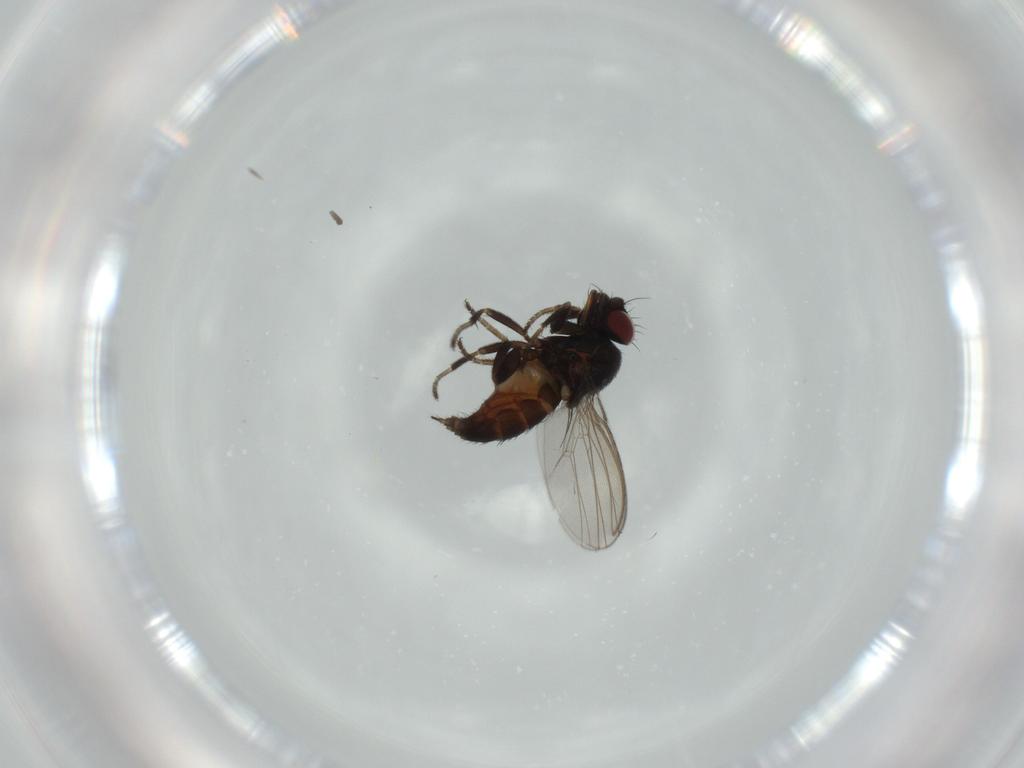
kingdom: Animalia
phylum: Arthropoda
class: Insecta
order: Diptera
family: Milichiidae
